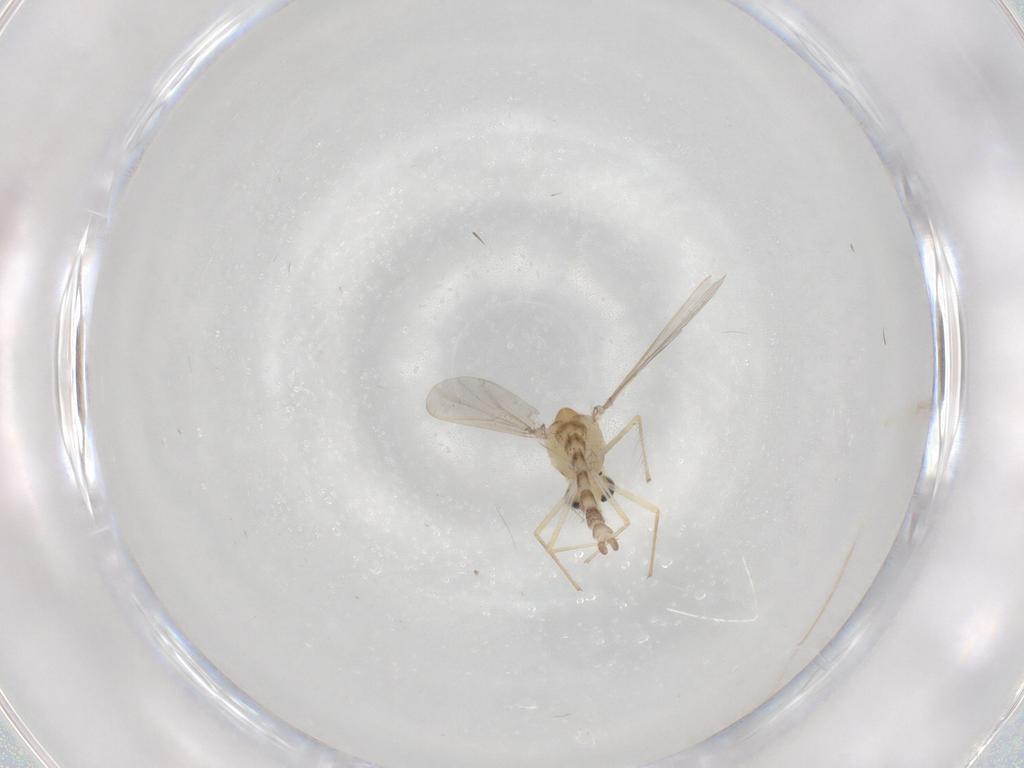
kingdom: Animalia
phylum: Arthropoda
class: Insecta
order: Diptera
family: Chironomidae
